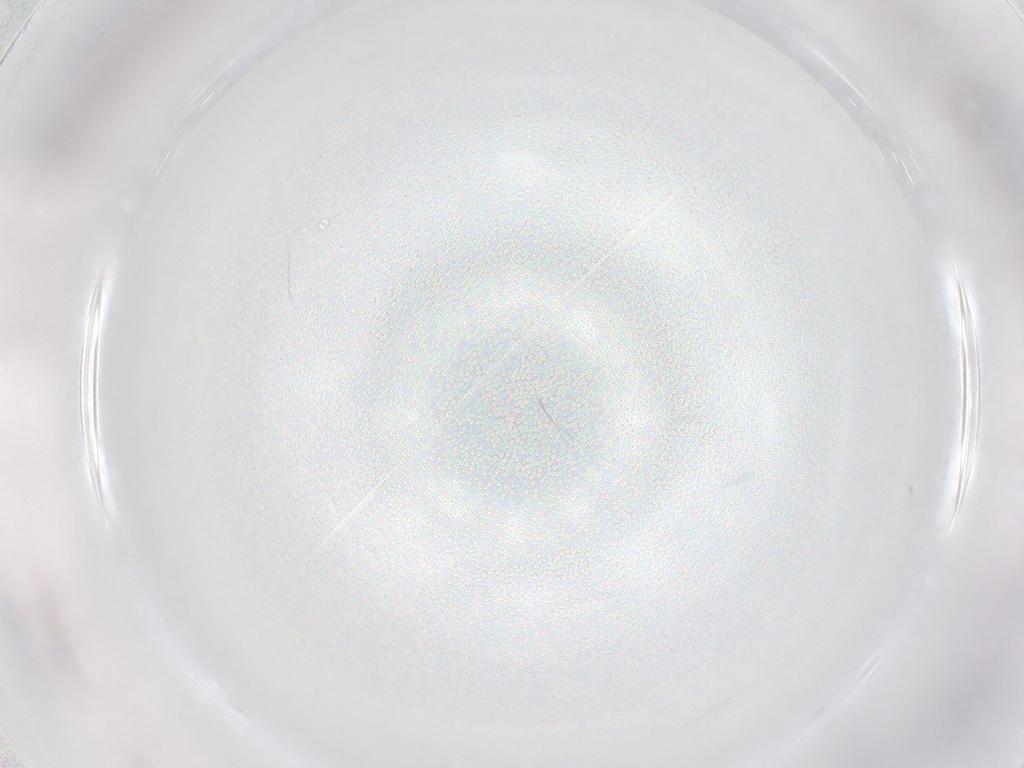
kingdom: Animalia
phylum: Arthropoda
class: Insecta
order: Diptera
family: Cecidomyiidae
